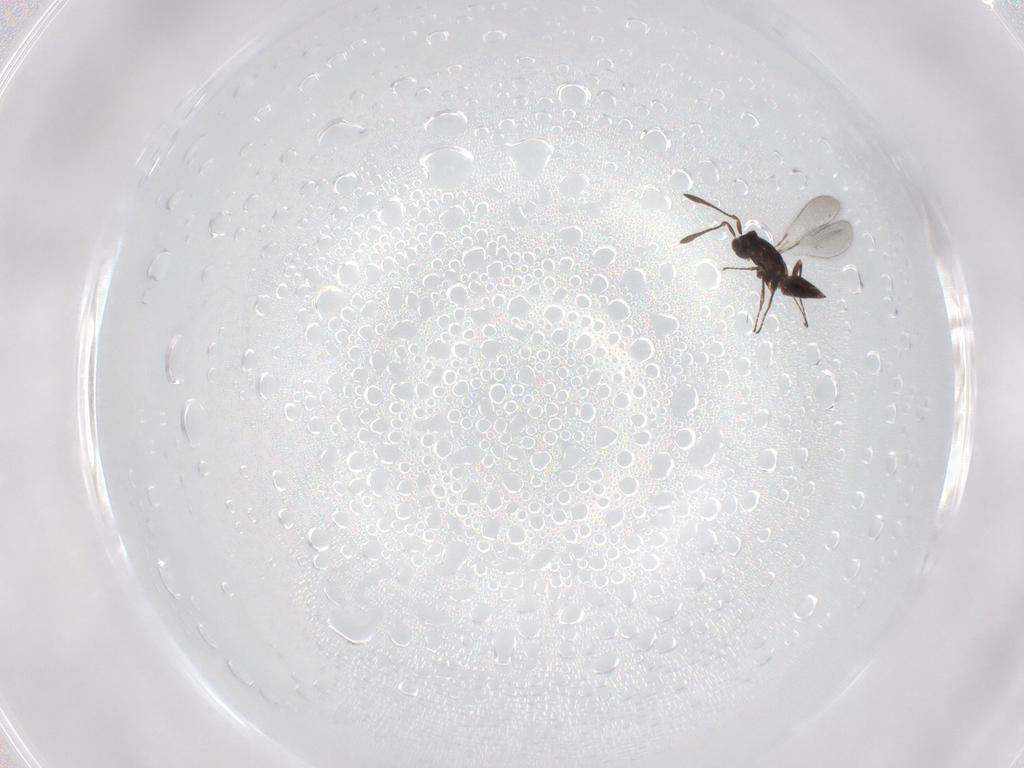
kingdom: Animalia
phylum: Arthropoda
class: Insecta
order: Hymenoptera
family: Mymaridae
